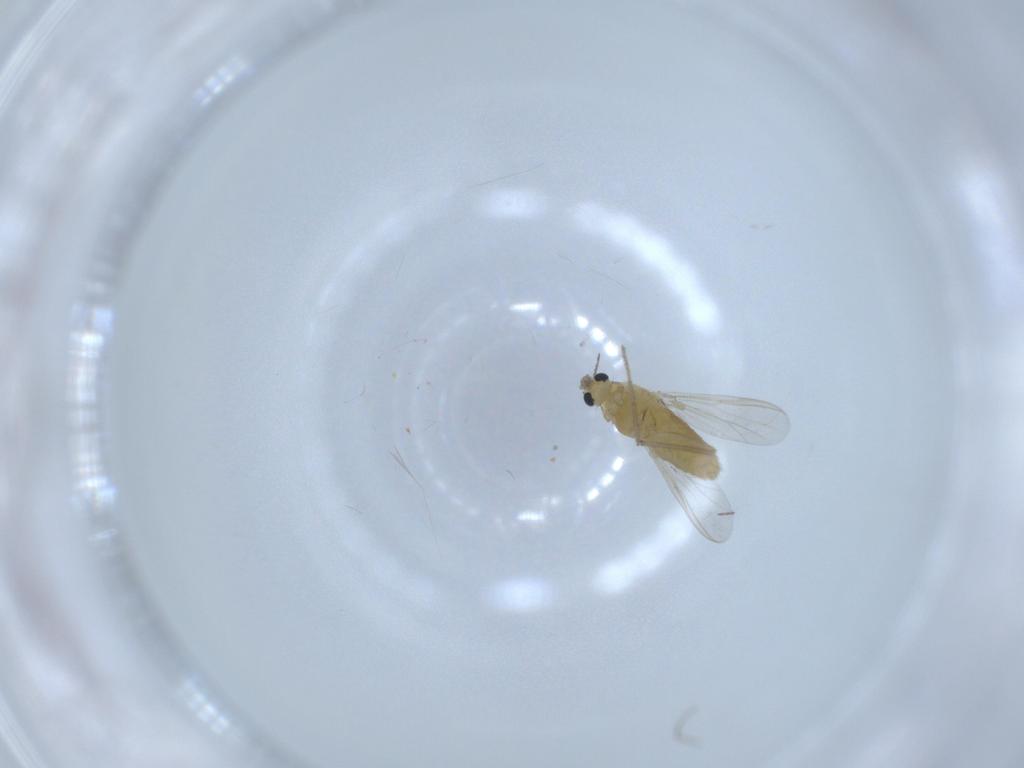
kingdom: Animalia
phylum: Arthropoda
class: Insecta
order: Diptera
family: Chironomidae
